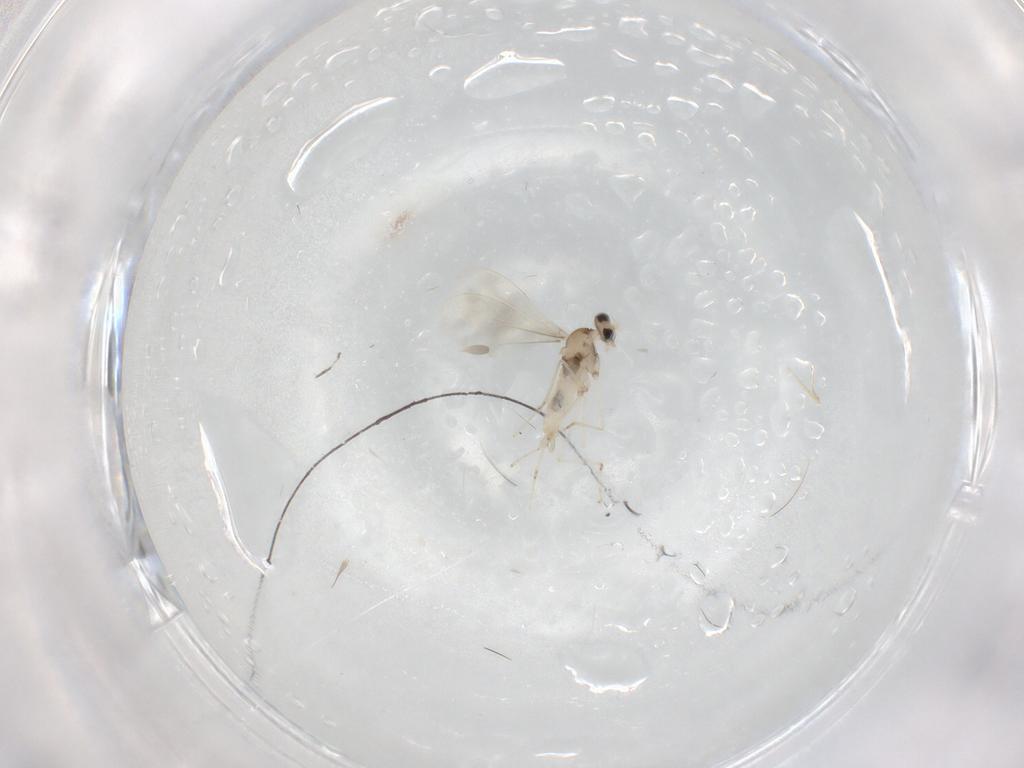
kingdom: Animalia
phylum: Arthropoda
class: Insecta
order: Diptera
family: Cecidomyiidae
